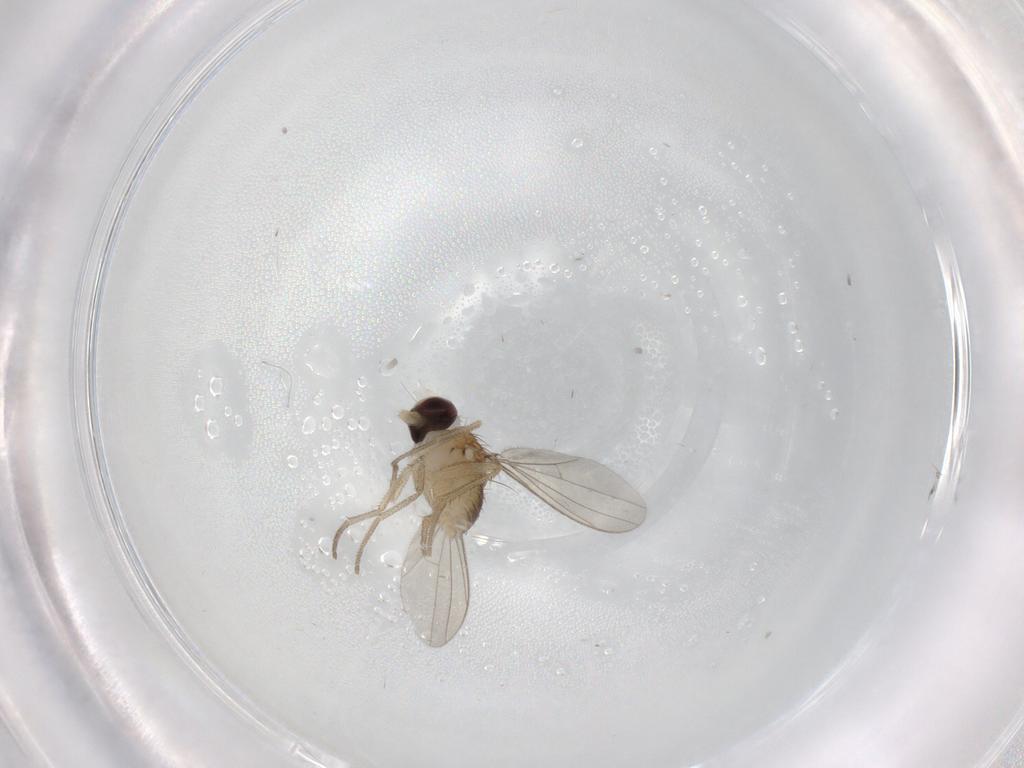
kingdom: Animalia
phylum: Arthropoda
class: Insecta
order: Diptera
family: Dolichopodidae
